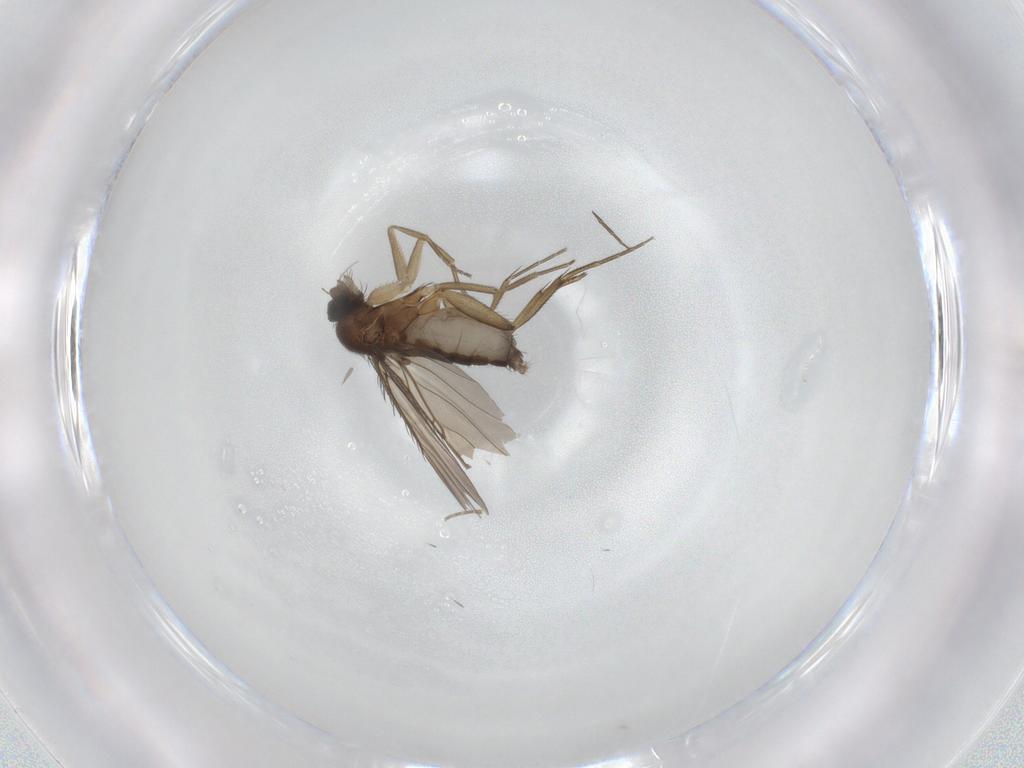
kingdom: Animalia
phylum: Arthropoda
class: Insecta
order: Diptera
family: Phoridae
